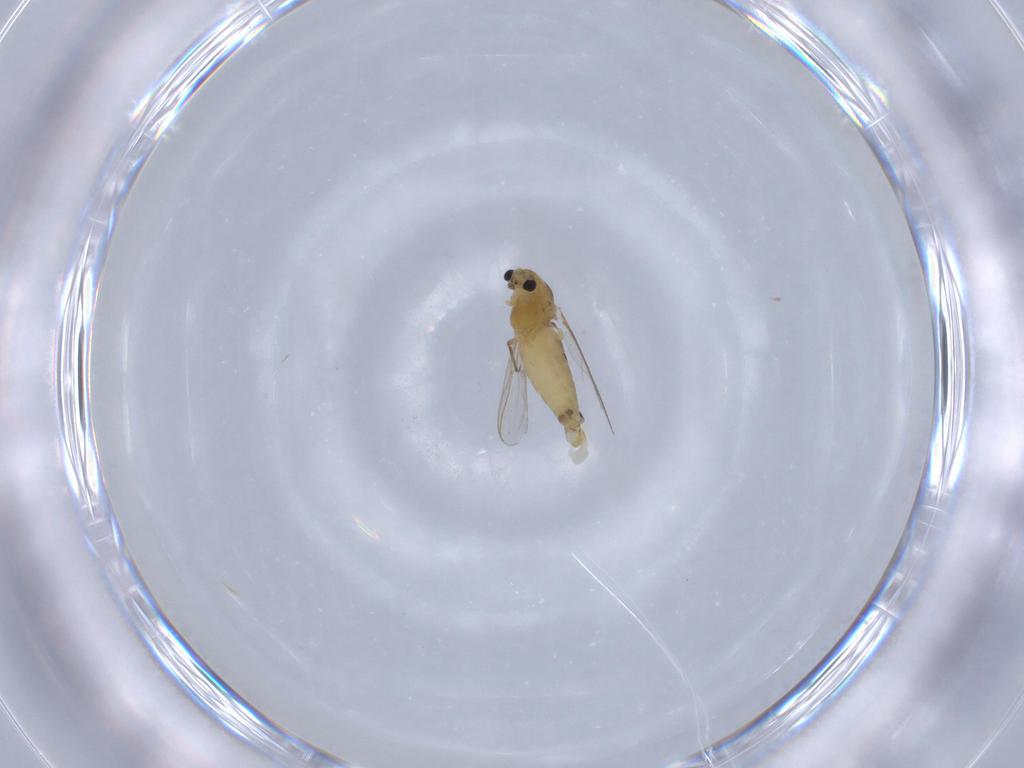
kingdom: Animalia
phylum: Arthropoda
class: Insecta
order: Diptera
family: Chironomidae
